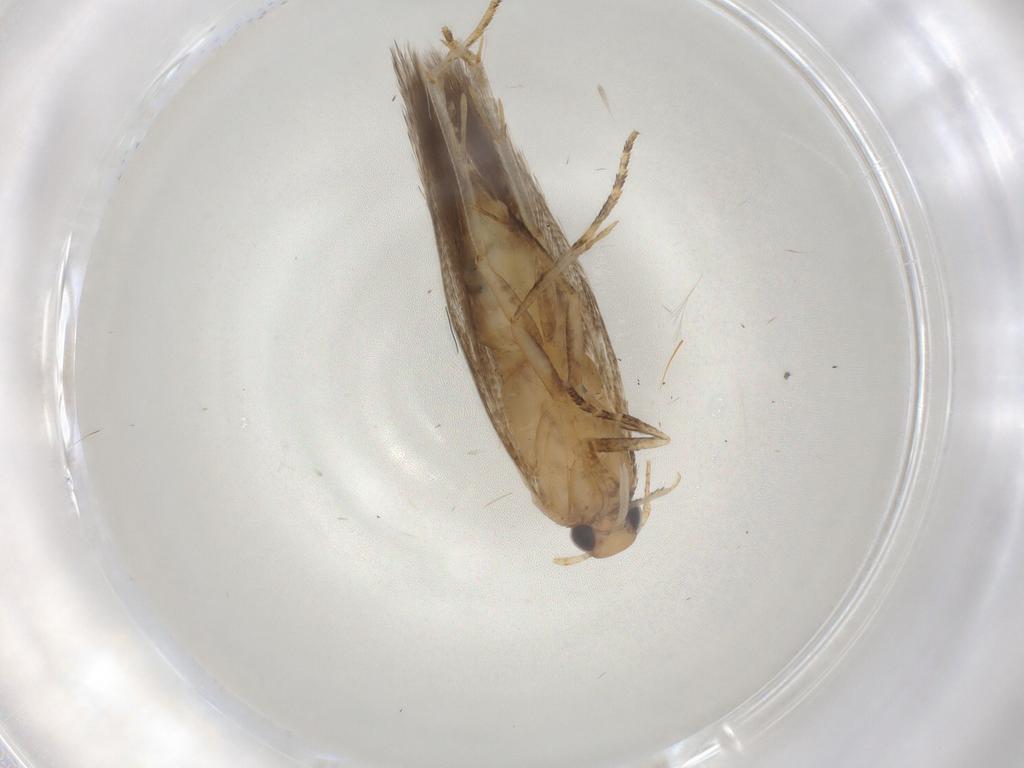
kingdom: Animalia
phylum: Arthropoda
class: Insecta
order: Lepidoptera
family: Gelechiidae
